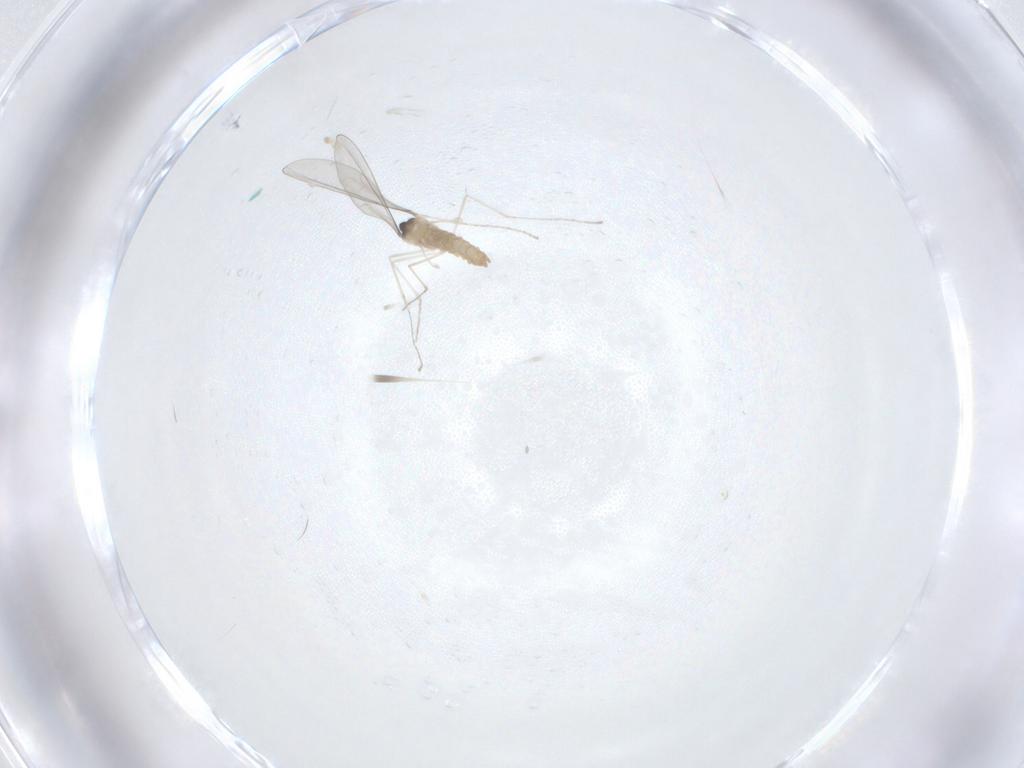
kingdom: Animalia
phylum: Arthropoda
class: Insecta
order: Diptera
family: Cecidomyiidae
